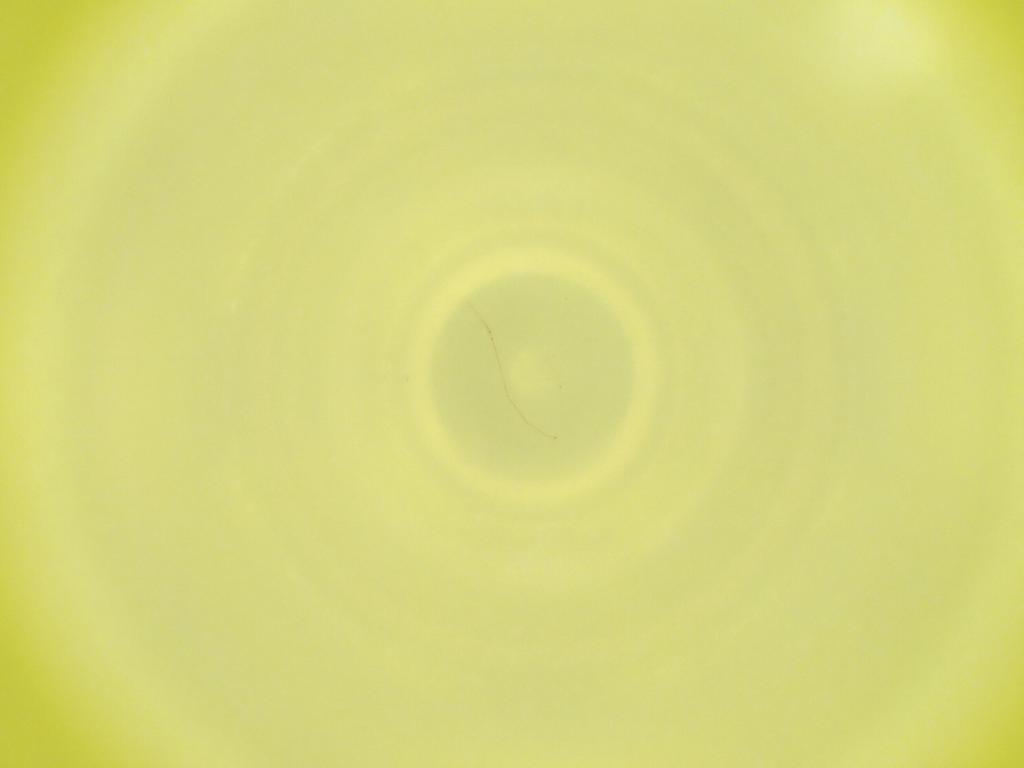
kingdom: Animalia
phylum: Arthropoda
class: Insecta
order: Diptera
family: Cecidomyiidae
